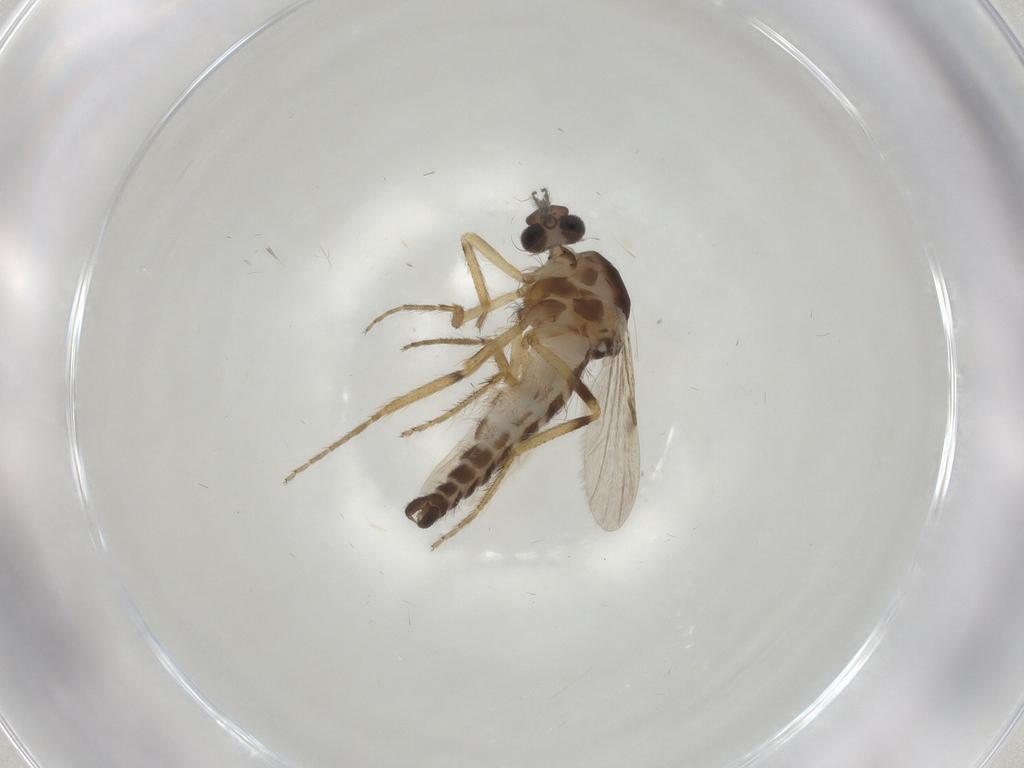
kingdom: Animalia
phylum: Arthropoda
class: Insecta
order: Diptera
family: Ceratopogonidae
